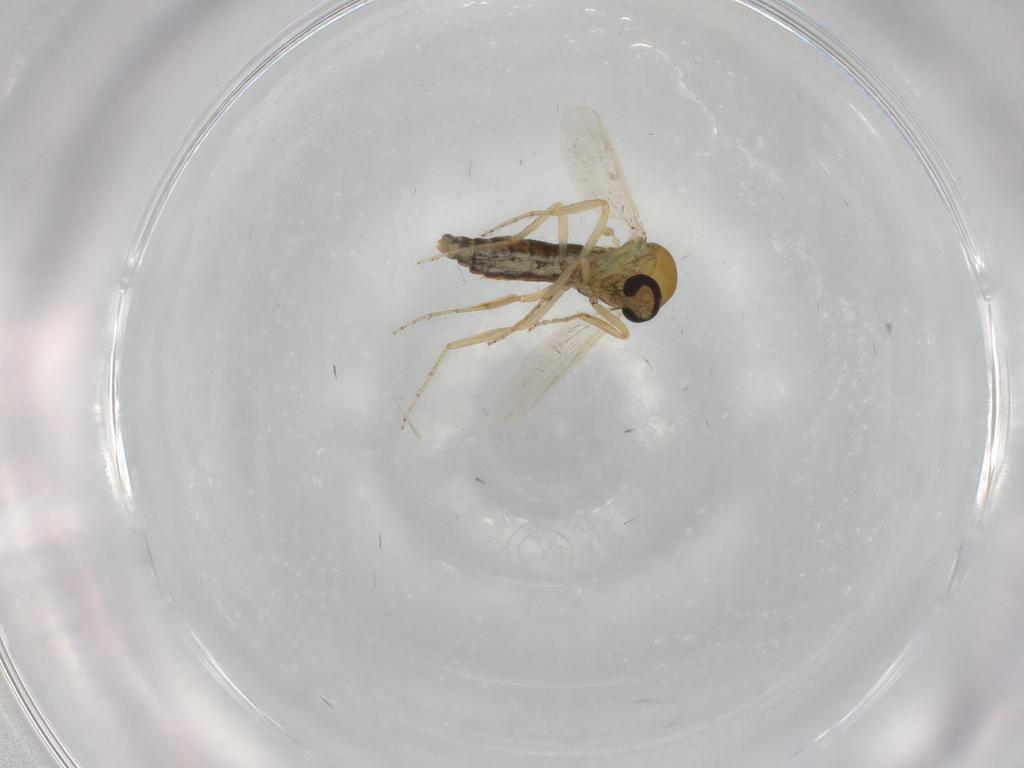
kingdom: Animalia
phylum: Arthropoda
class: Insecta
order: Diptera
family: Ceratopogonidae
